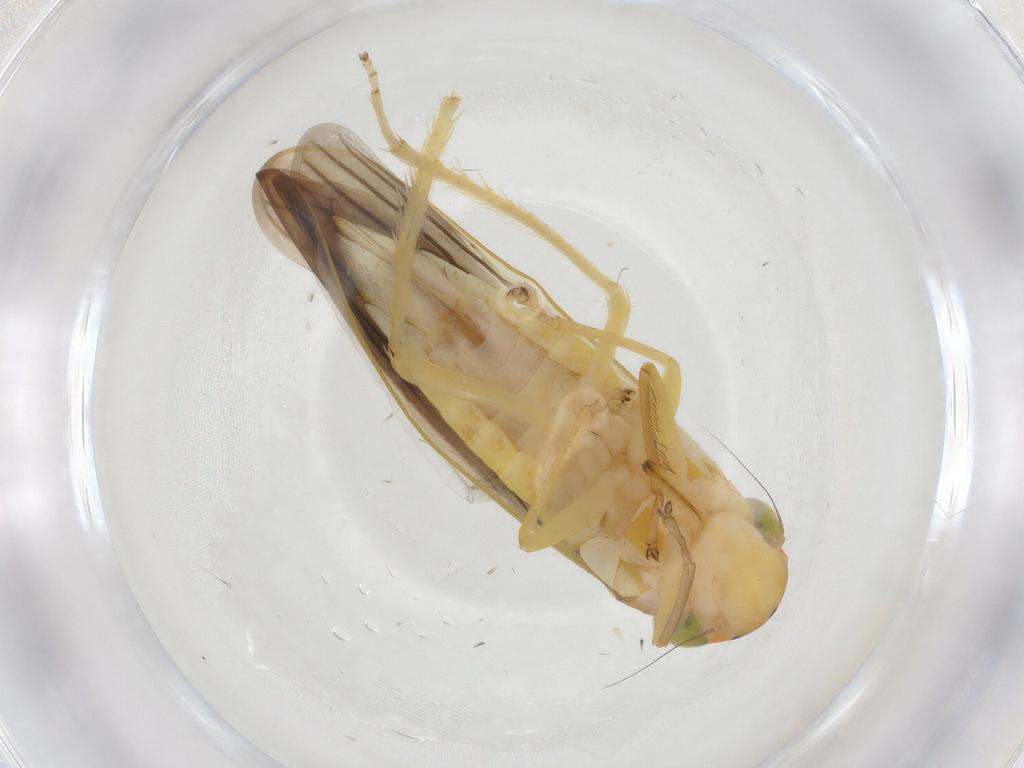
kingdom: Animalia
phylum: Arthropoda
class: Insecta
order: Hemiptera
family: Cicadellidae
